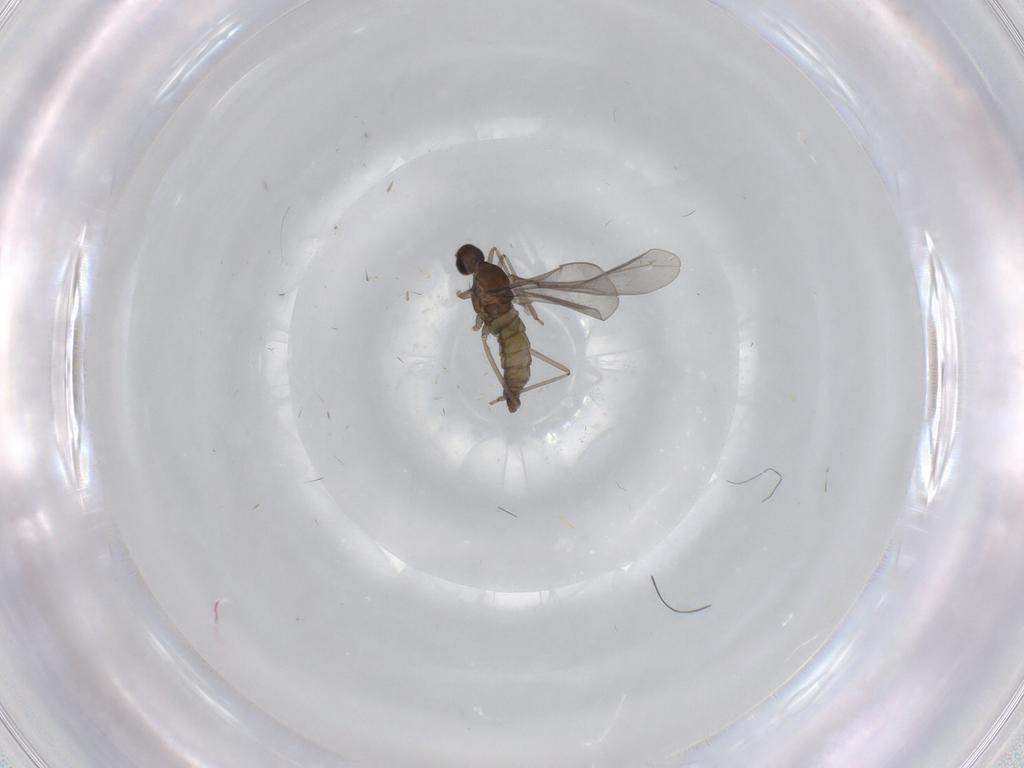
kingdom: Animalia
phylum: Arthropoda
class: Insecta
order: Diptera
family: Cecidomyiidae
